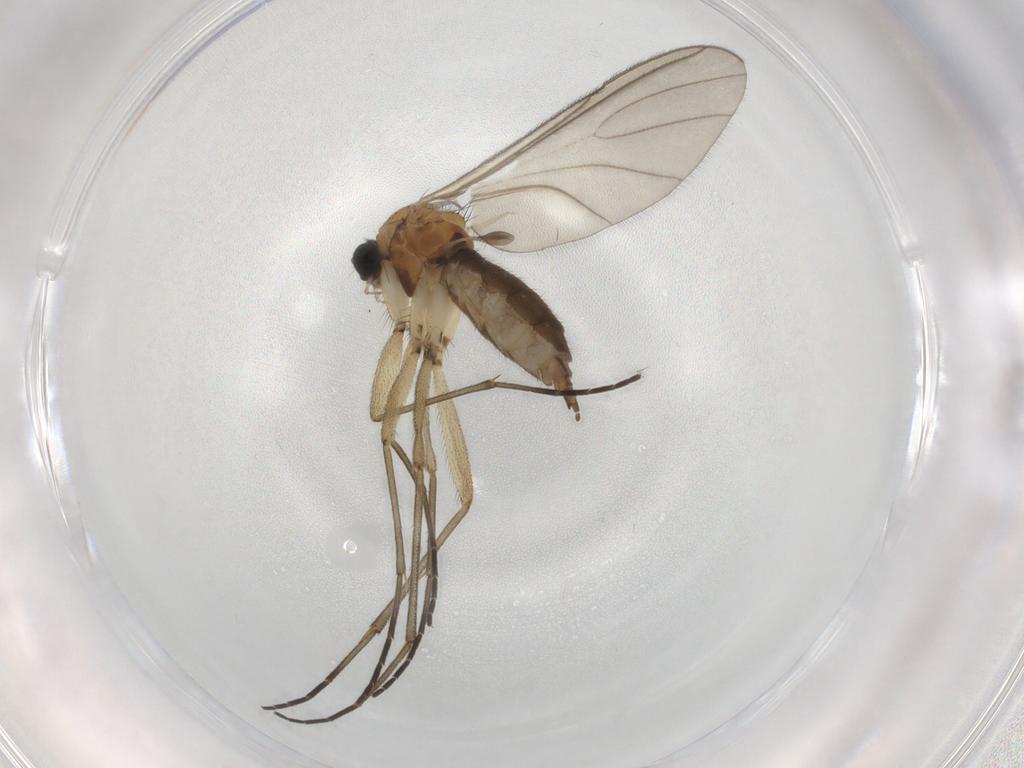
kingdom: Animalia
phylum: Arthropoda
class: Insecta
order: Diptera
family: Sciaridae
